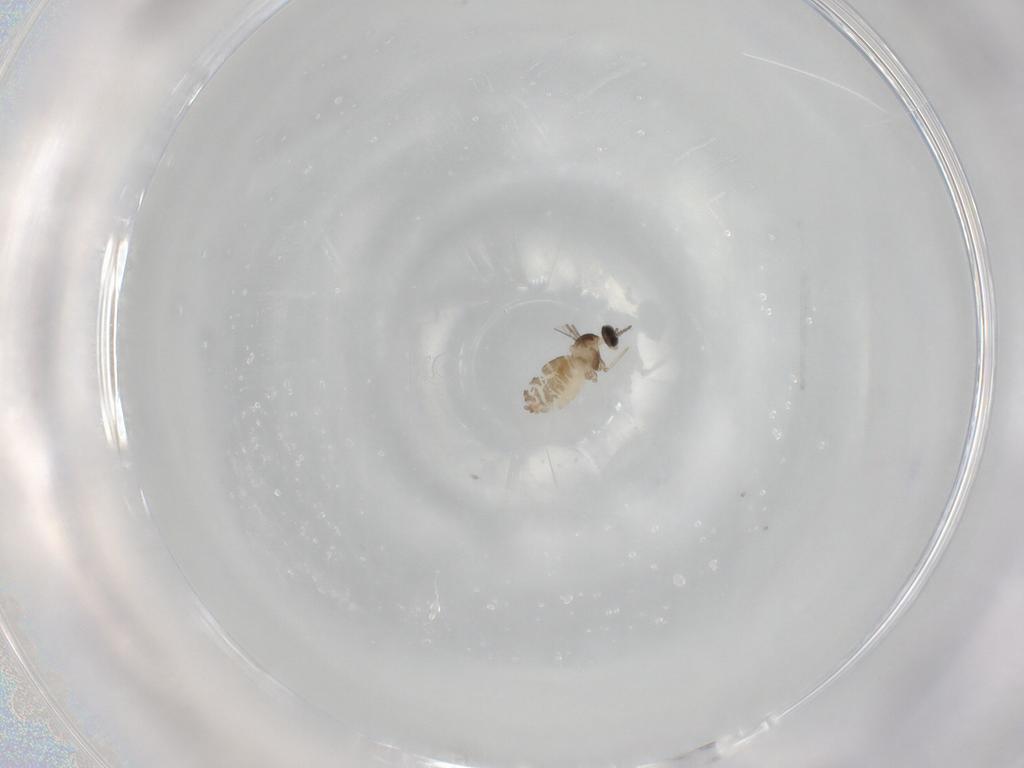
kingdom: Animalia
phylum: Arthropoda
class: Insecta
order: Diptera
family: Cecidomyiidae
